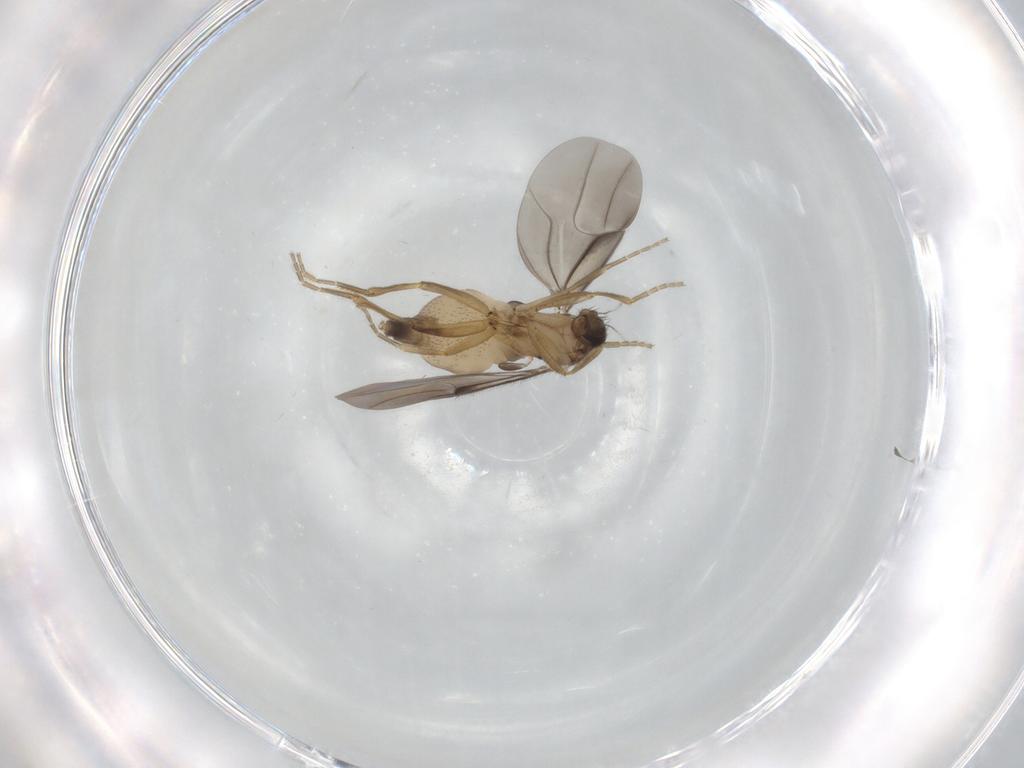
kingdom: Animalia
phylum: Arthropoda
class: Insecta
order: Diptera
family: Phoridae
